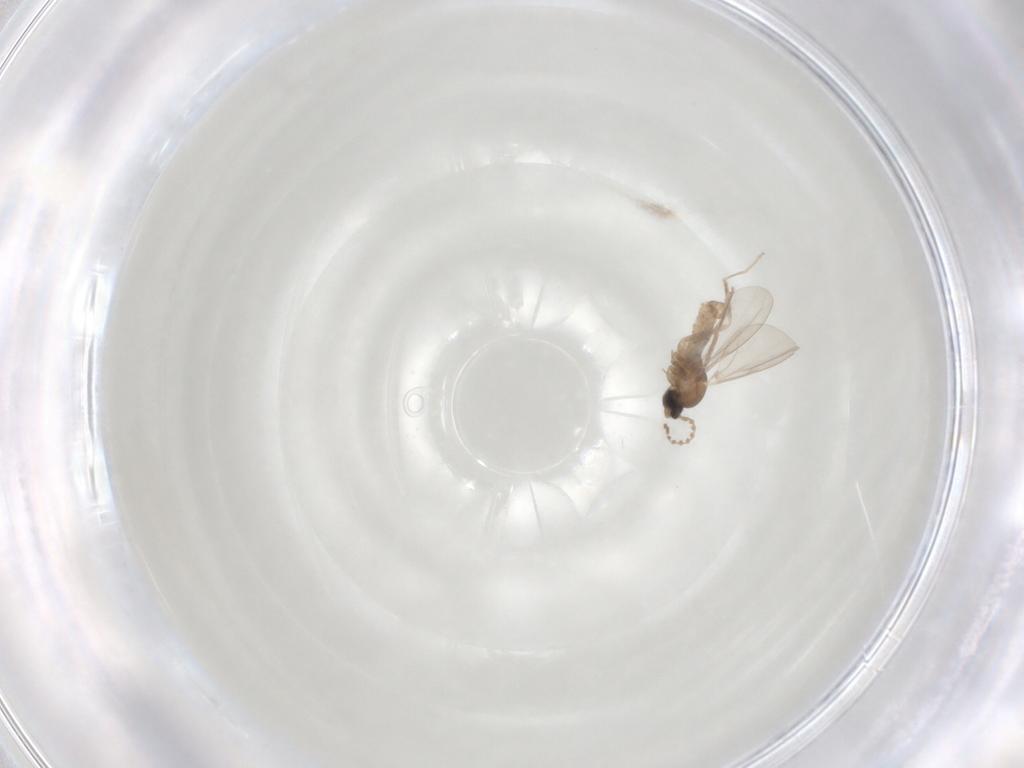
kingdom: Animalia
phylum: Arthropoda
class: Insecta
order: Diptera
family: Cecidomyiidae
